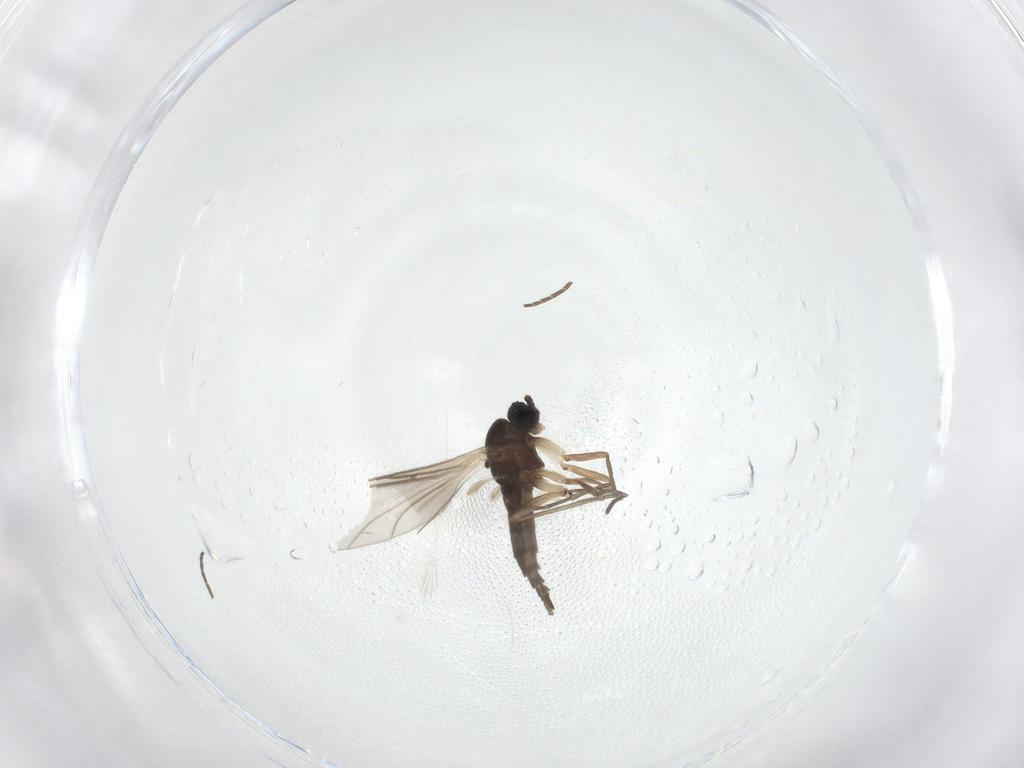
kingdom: Animalia
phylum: Arthropoda
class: Insecta
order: Diptera
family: Sciaridae
